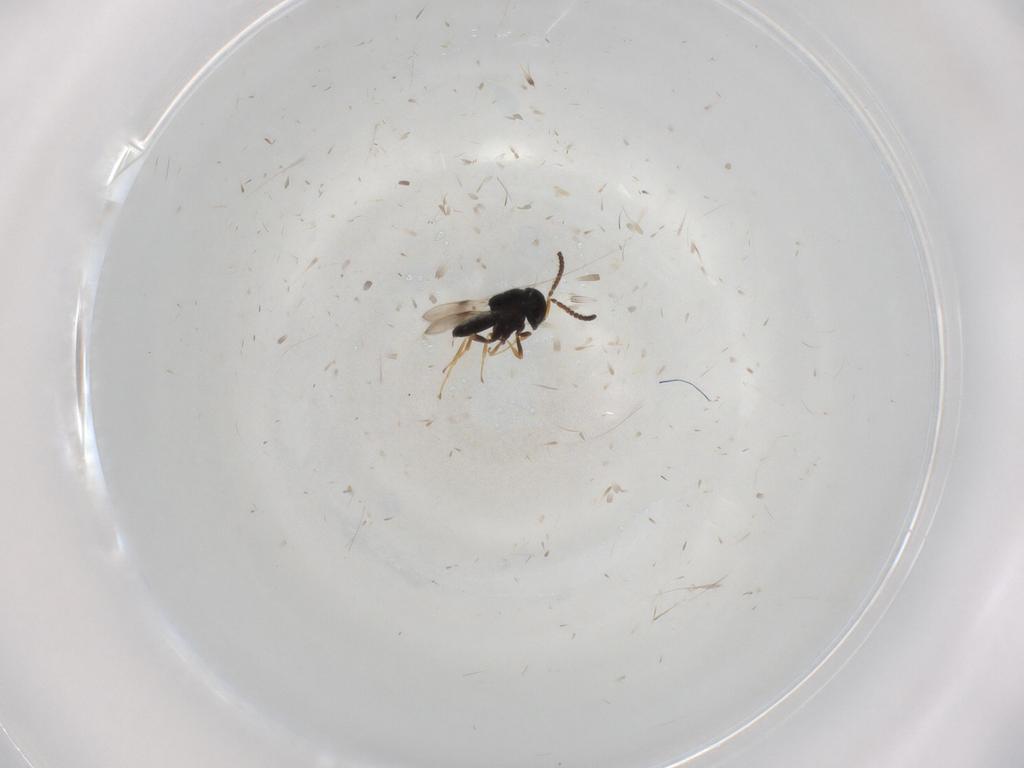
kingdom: Animalia
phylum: Arthropoda
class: Insecta
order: Hymenoptera
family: Scelionidae
